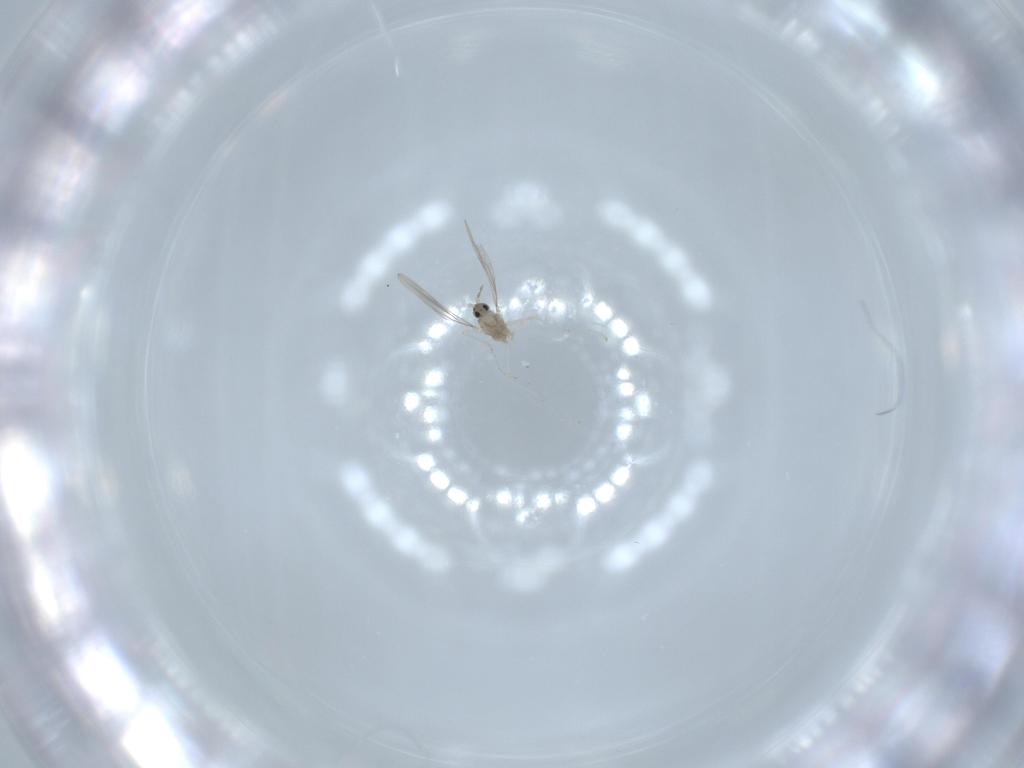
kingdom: Animalia
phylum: Arthropoda
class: Insecta
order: Diptera
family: Cecidomyiidae
